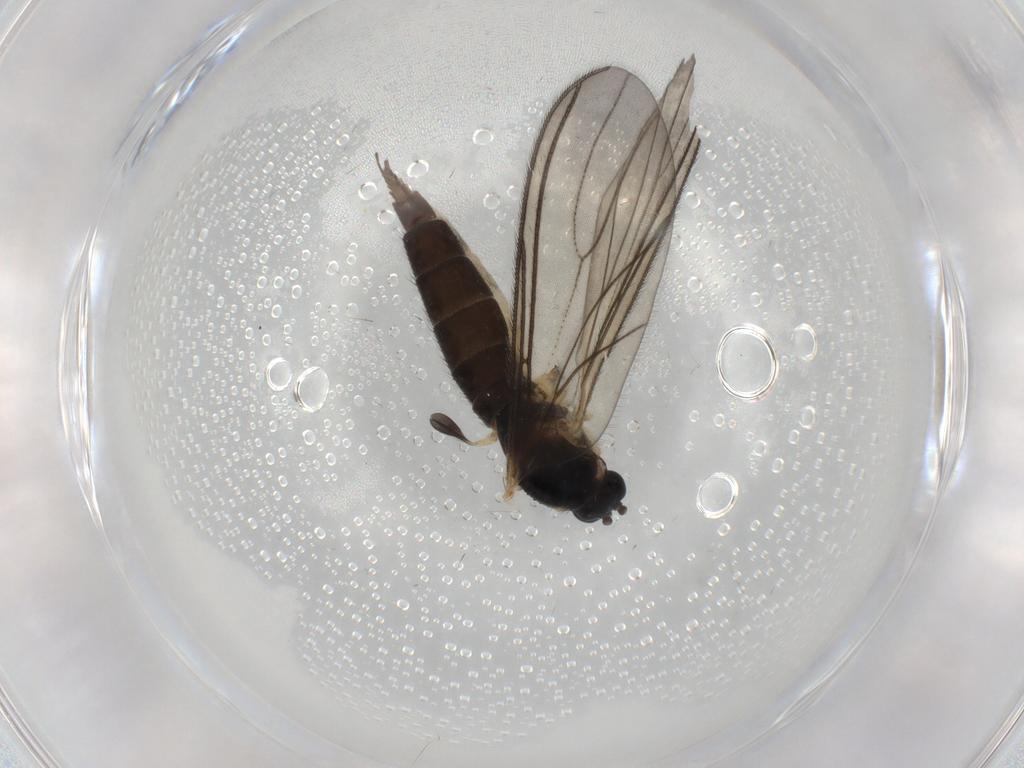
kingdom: Animalia
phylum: Arthropoda
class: Insecta
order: Diptera
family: Sciaridae
